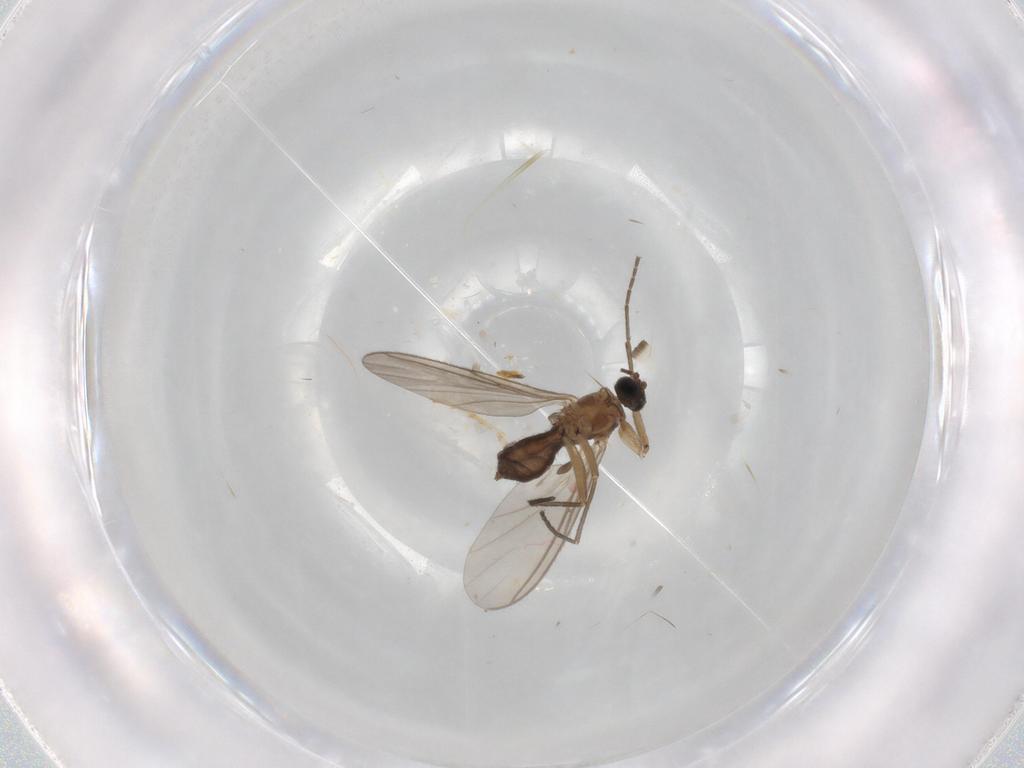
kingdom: Animalia
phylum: Arthropoda
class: Insecta
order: Diptera
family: Sciaridae
